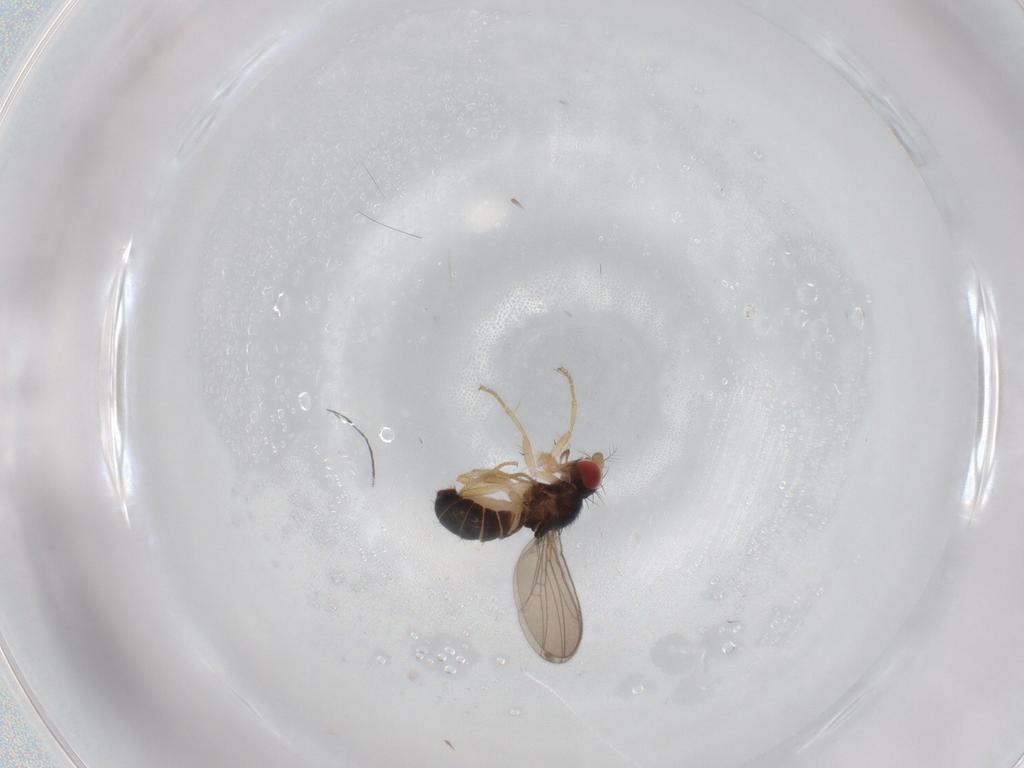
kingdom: Animalia
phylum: Arthropoda
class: Insecta
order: Diptera
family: Drosophilidae
